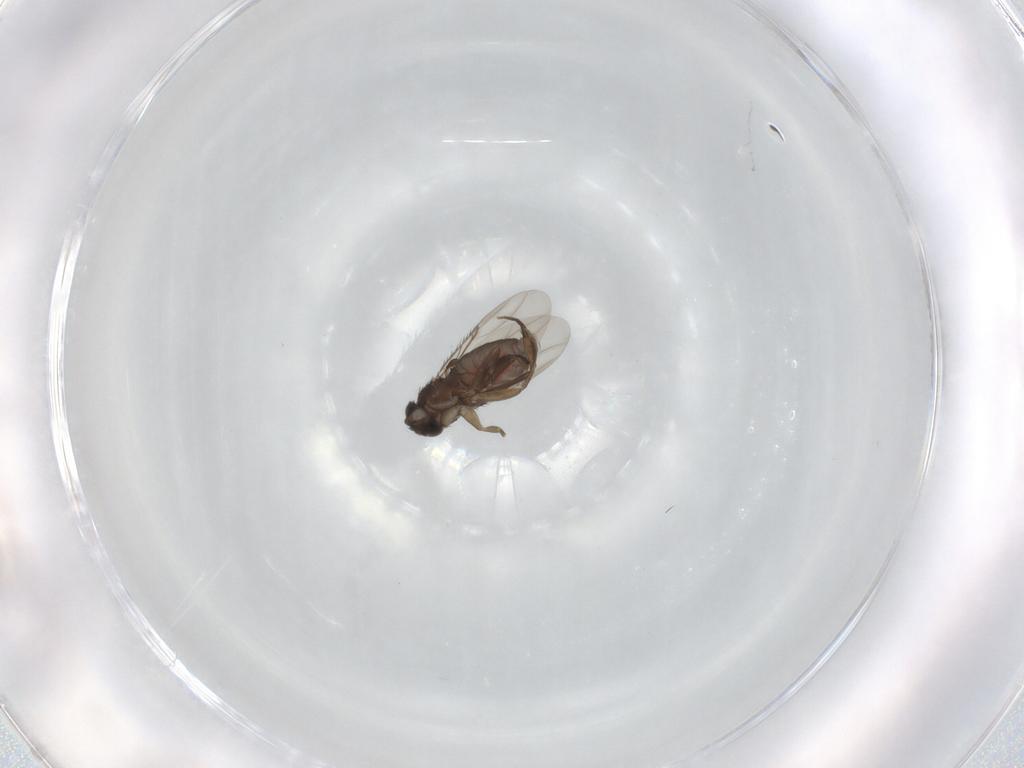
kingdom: Animalia
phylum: Arthropoda
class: Insecta
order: Diptera
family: Phoridae
